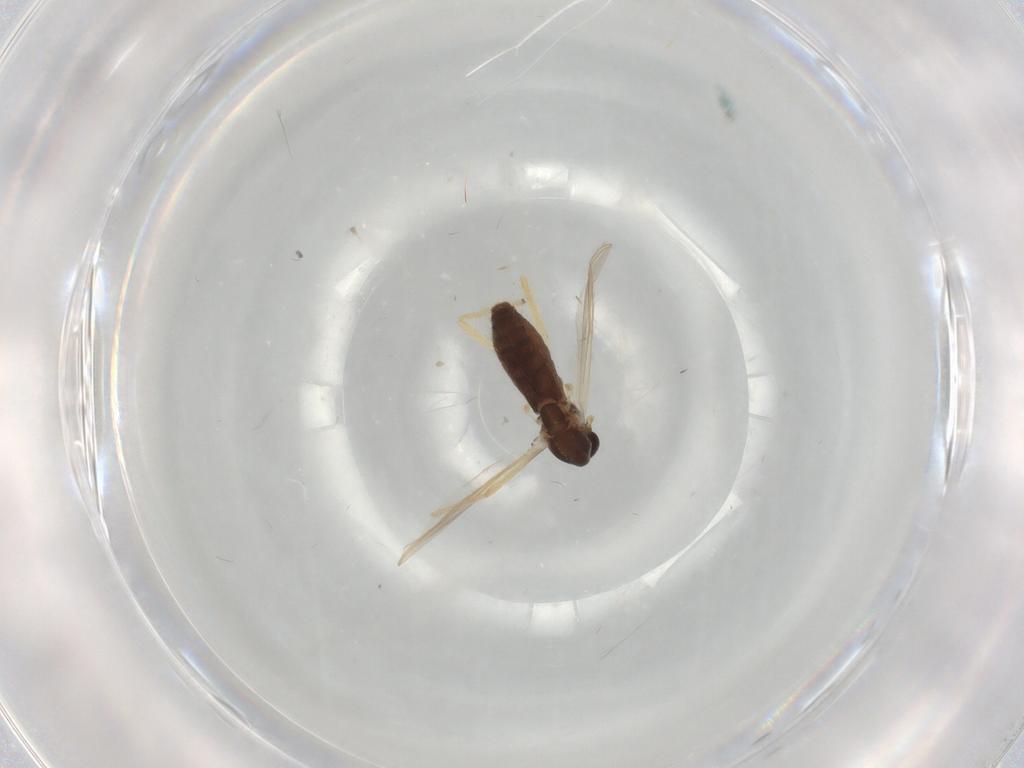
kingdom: Animalia
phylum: Arthropoda
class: Insecta
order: Diptera
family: Chironomidae
